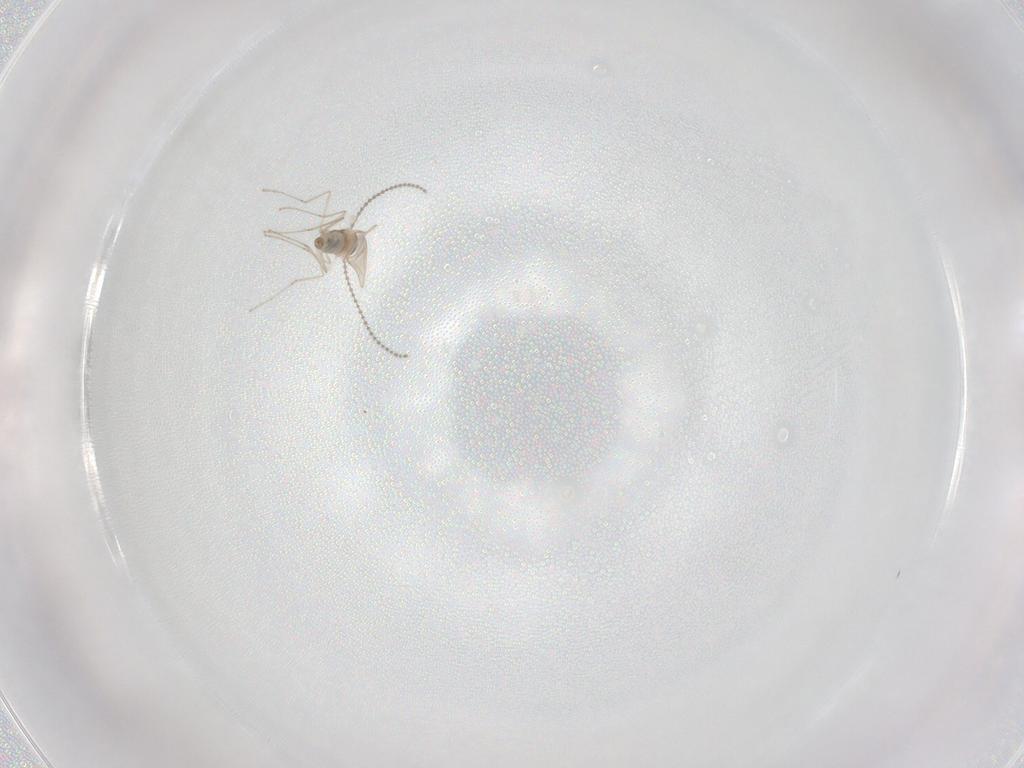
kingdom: Animalia
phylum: Arthropoda
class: Insecta
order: Diptera
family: Cecidomyiidae
